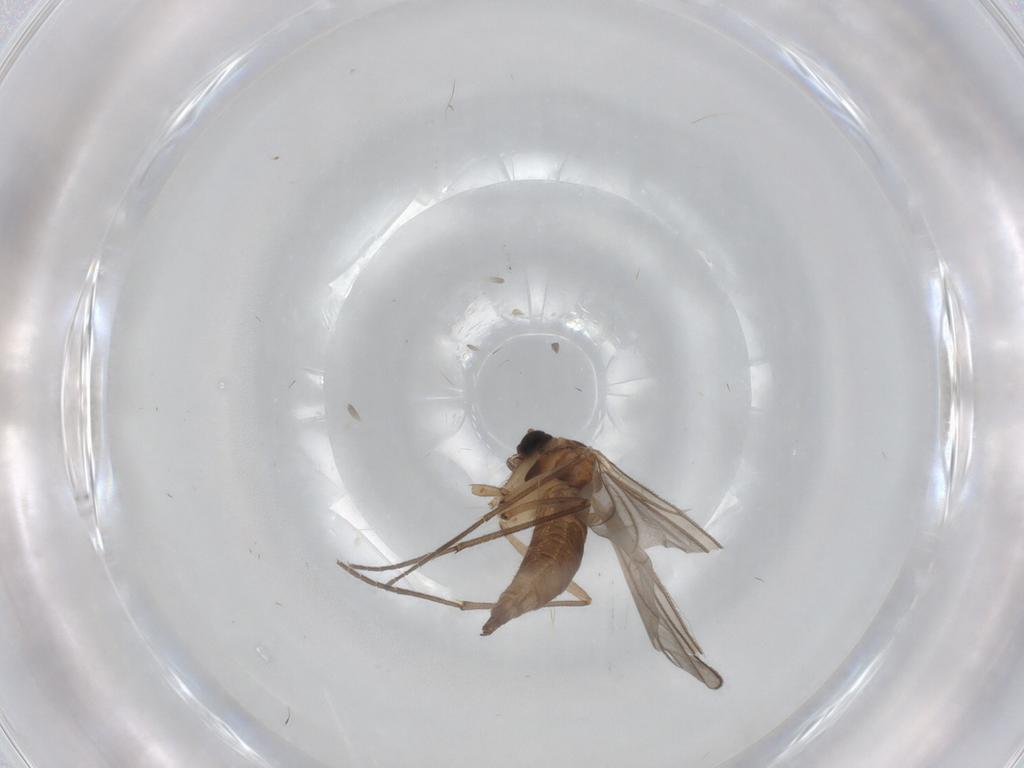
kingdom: Animalia
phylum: Arthropoda
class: Insecta
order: Diptera
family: Sciaridae
